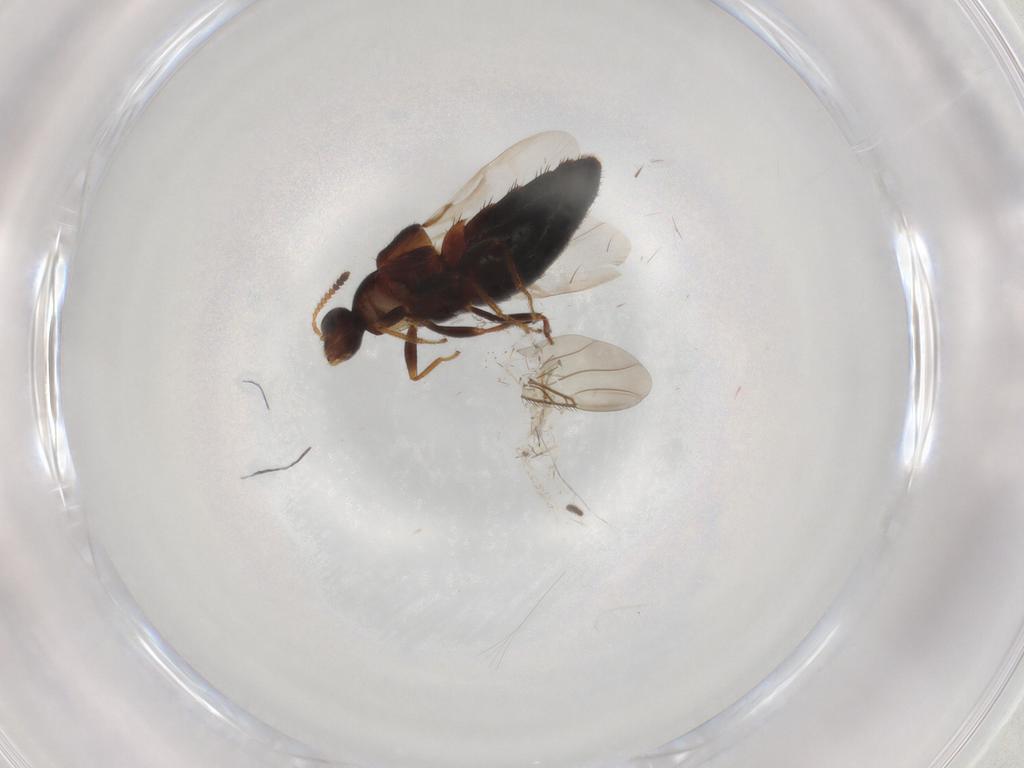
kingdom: Animalia
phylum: Arthropoda
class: Insecta
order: Coleoptera
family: Staphylinidae
